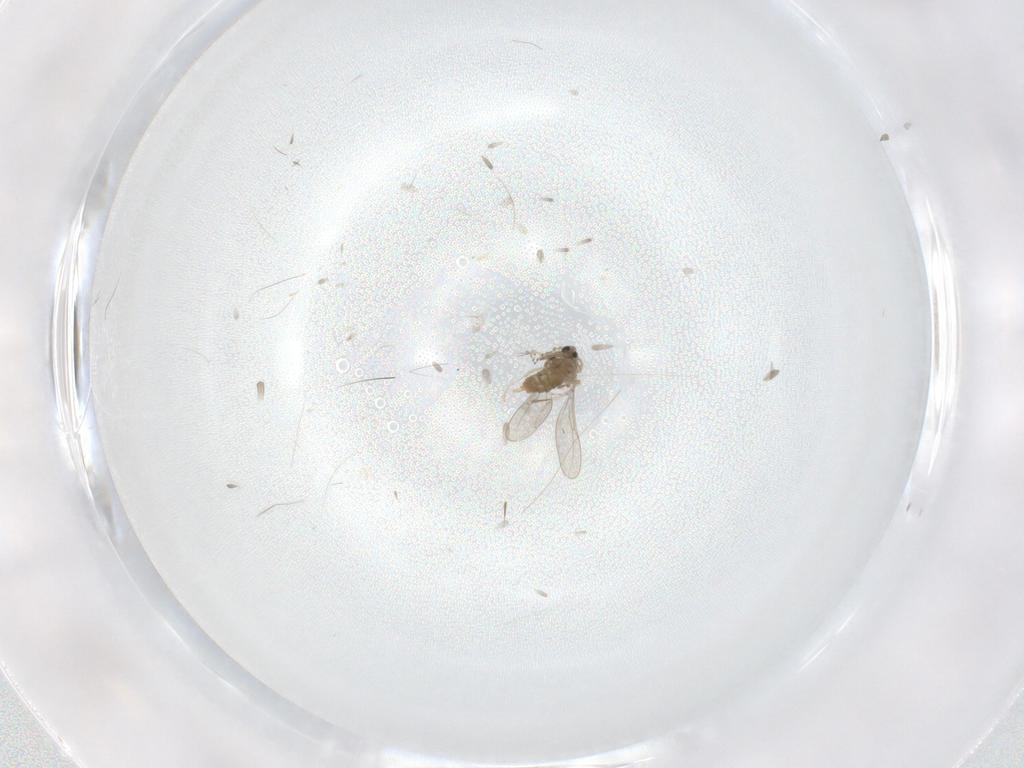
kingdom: Animalia
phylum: Arthropoda
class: Insecta
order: Diptera
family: Cecidomyiidae
